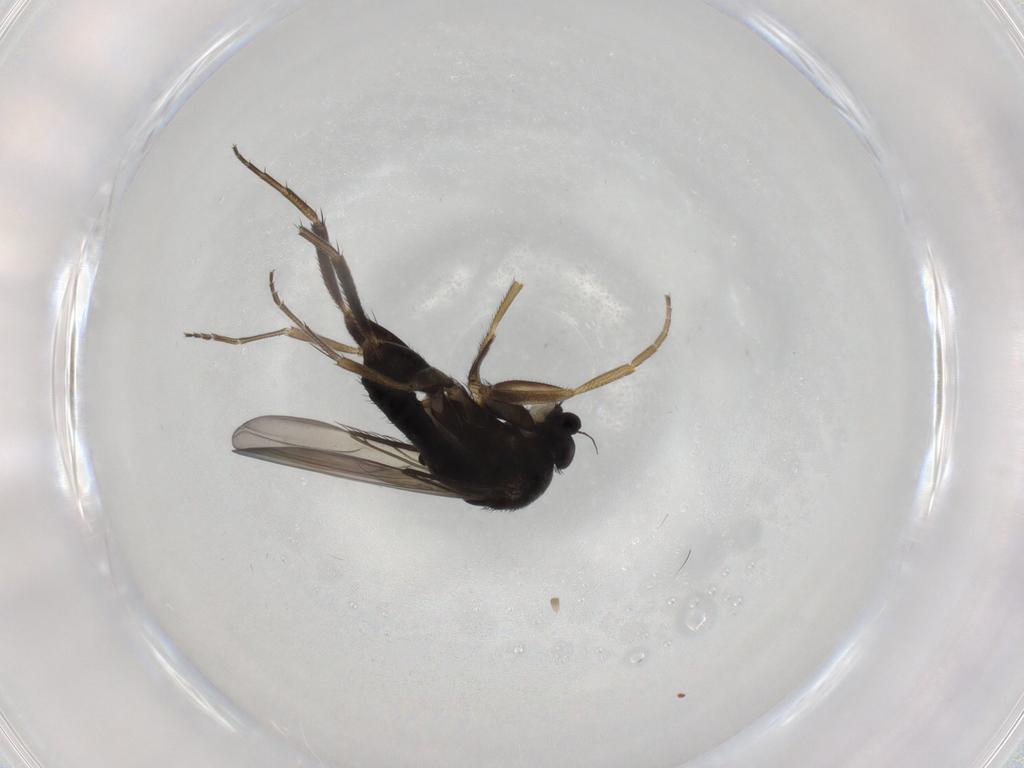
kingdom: Animalia
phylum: Arthropoda
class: Insecta
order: Diptera
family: Phoridae
